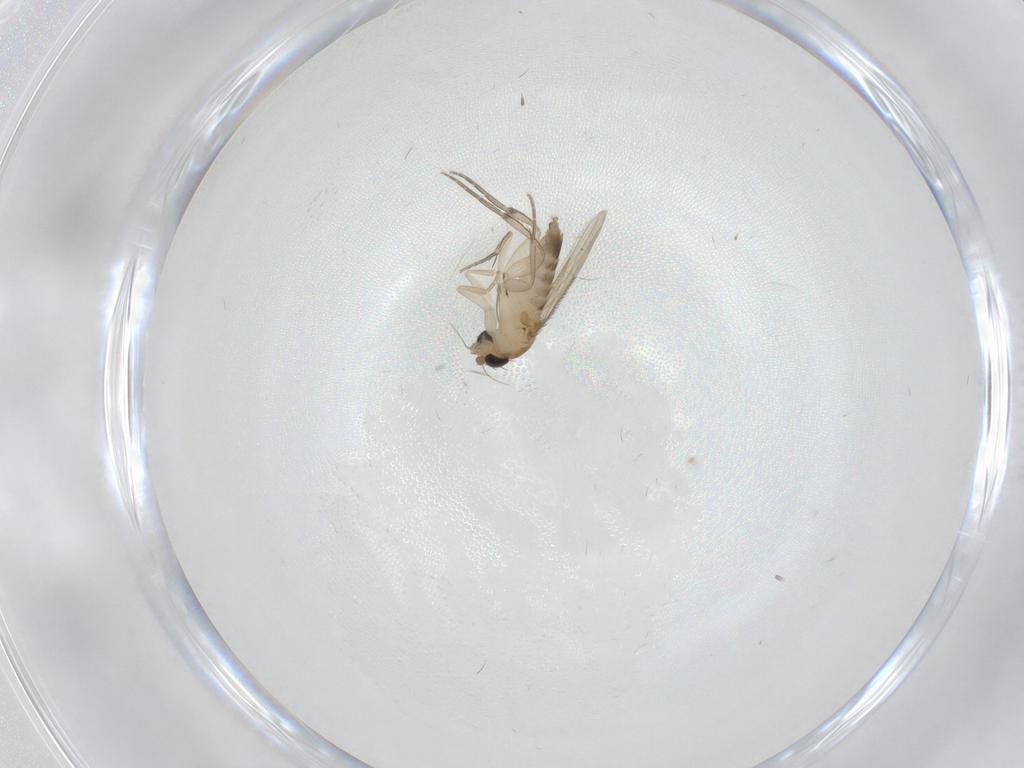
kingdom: Animalia
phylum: Arthropoda
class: Insecta
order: Diptera
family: Phoridae
